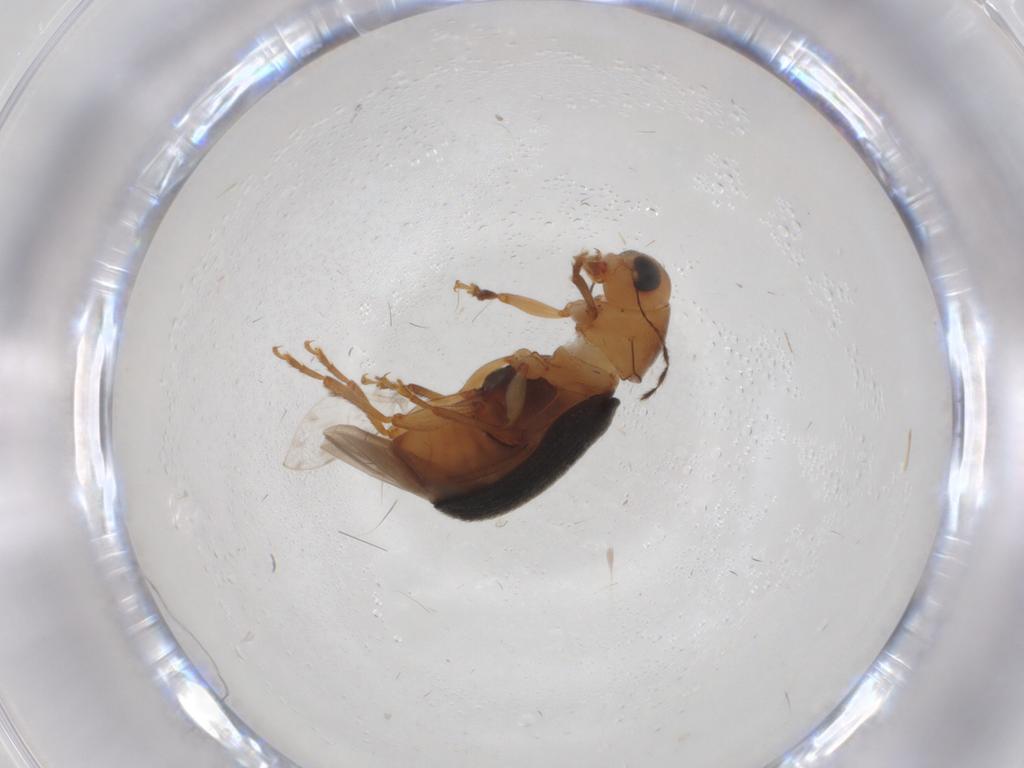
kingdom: Animalia
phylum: Arthropoda
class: Insecta
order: Coleoptera
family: Anthribidae
